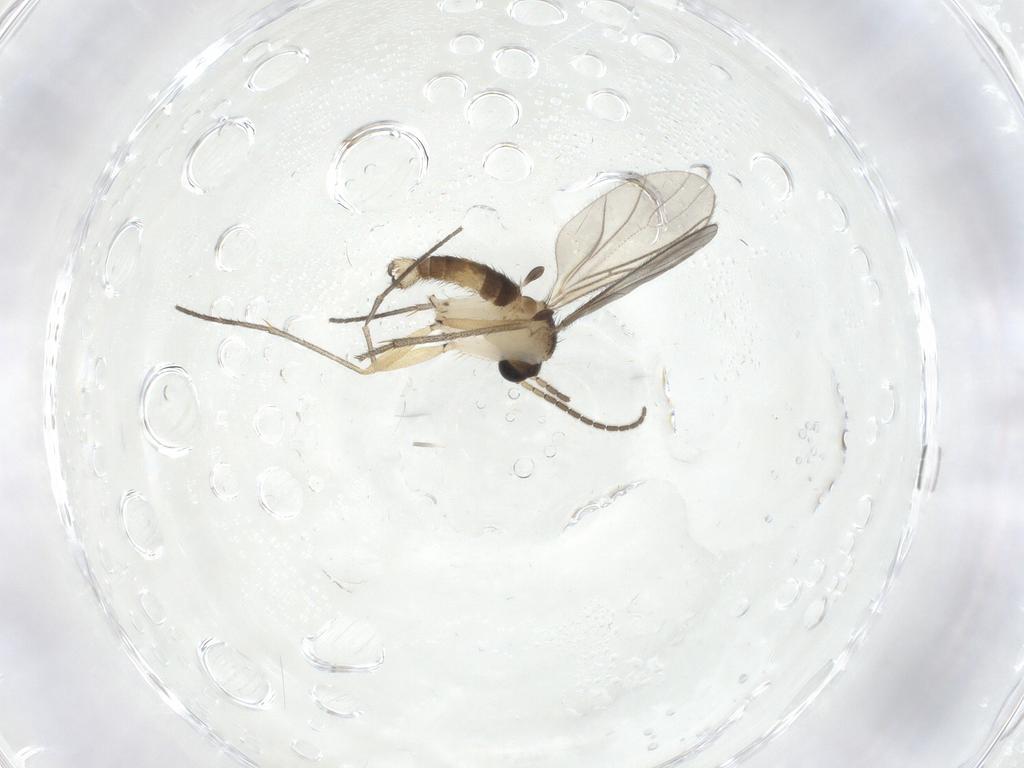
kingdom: Animalia
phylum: Arthropoda
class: Insecta
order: Diptera
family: Sciaridae
